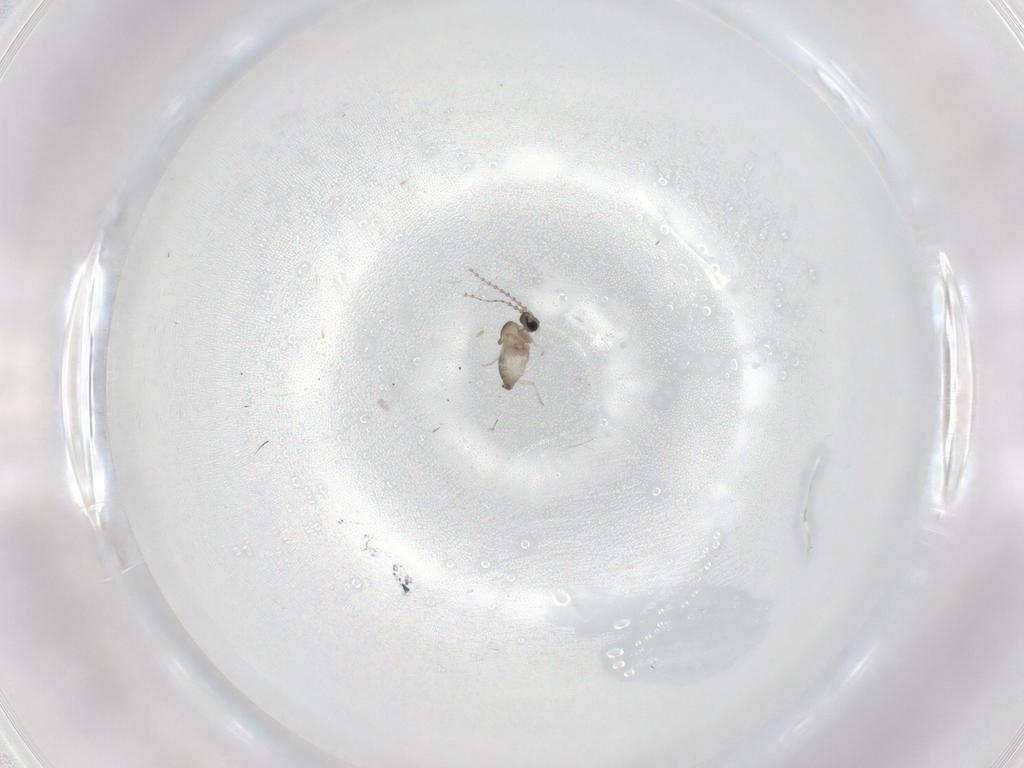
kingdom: Animalia
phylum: Arthropoda
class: Insecta
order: Diptera
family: Cecidomyiidae
